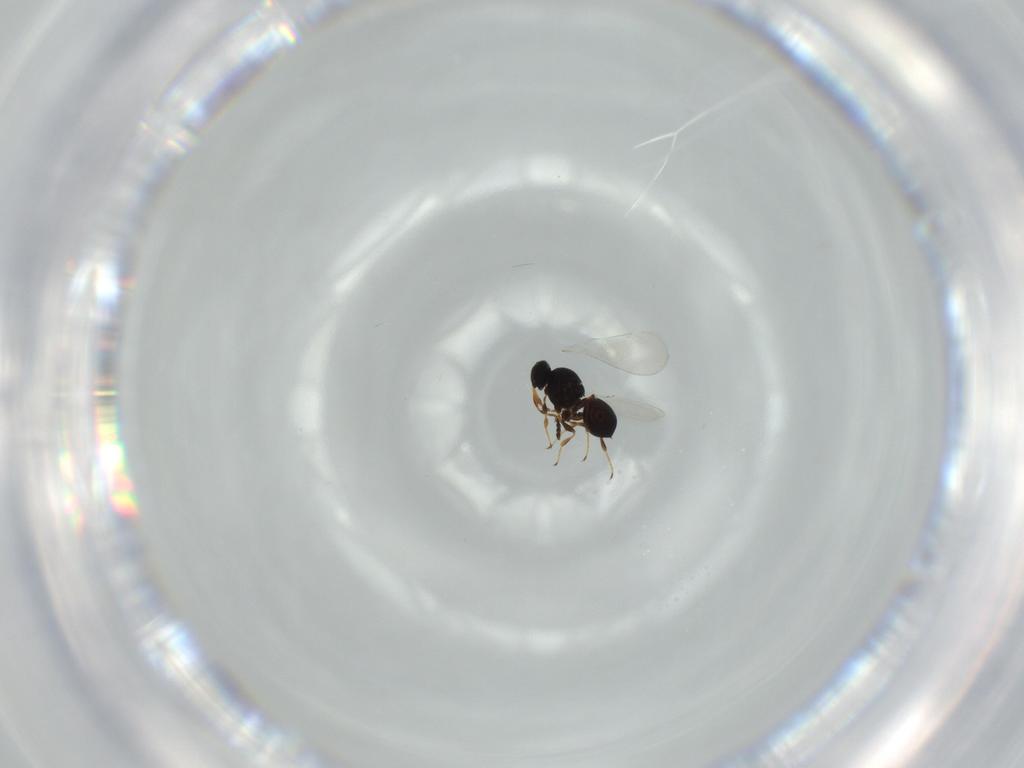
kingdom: Animalia
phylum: Arthropoda
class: Insecta
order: Hymenoptera
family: Platygastridae
